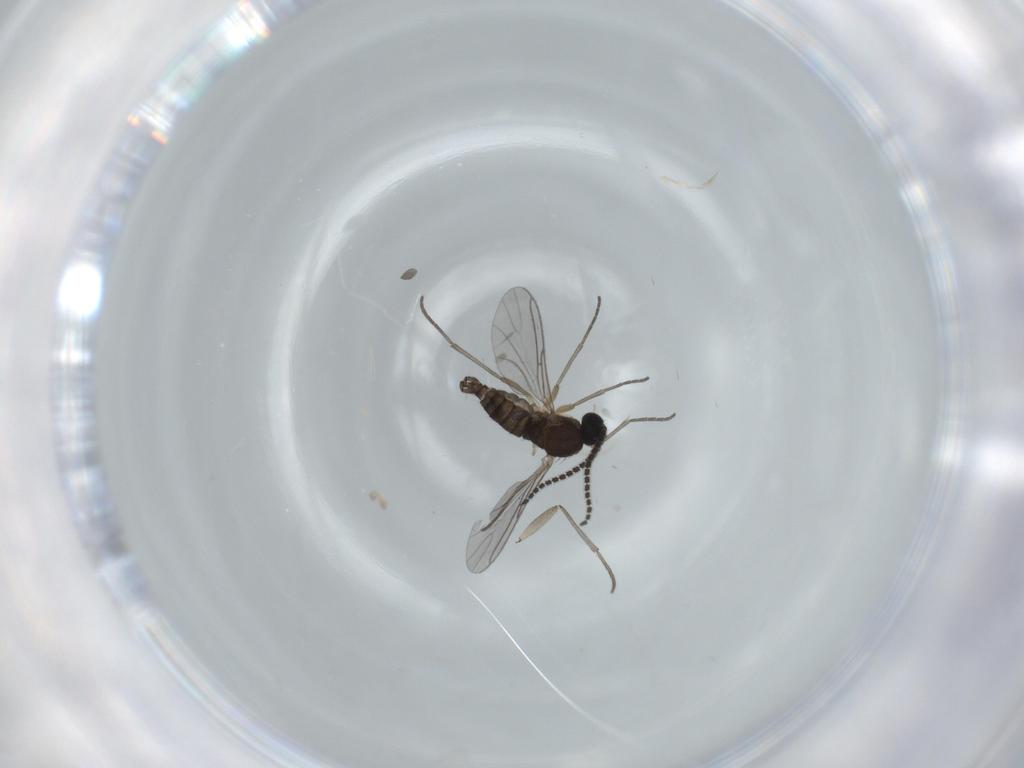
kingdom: Animalia
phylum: Arthropoda
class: Insecta
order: Diptera
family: Sciaridae
